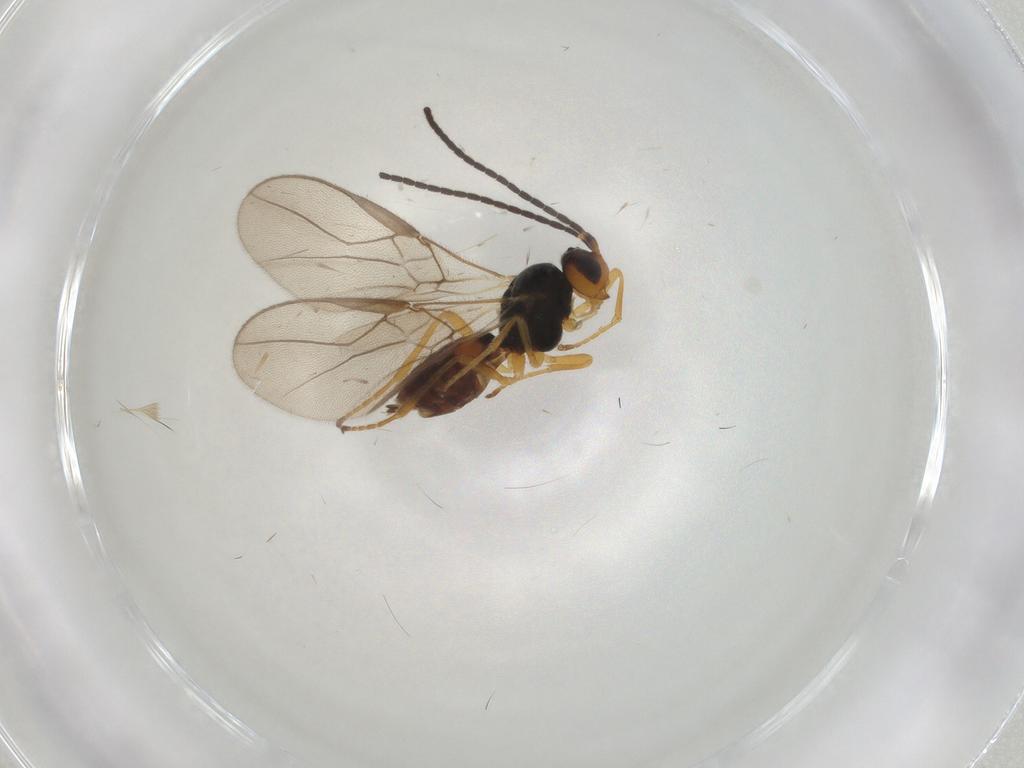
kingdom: Animalia
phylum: Arthropoda
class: Insecta
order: Hymenoptera
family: Braconidae
